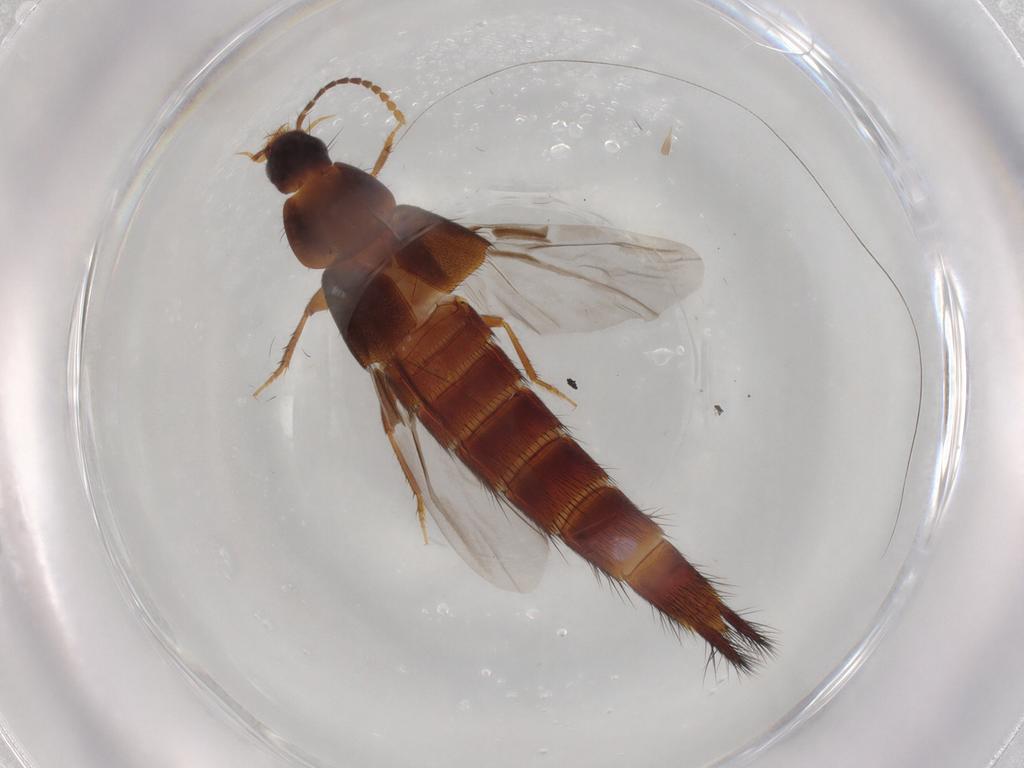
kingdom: Animalia
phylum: Arthropoda
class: Insecta
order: Coleoptera
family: Staphylinidae
